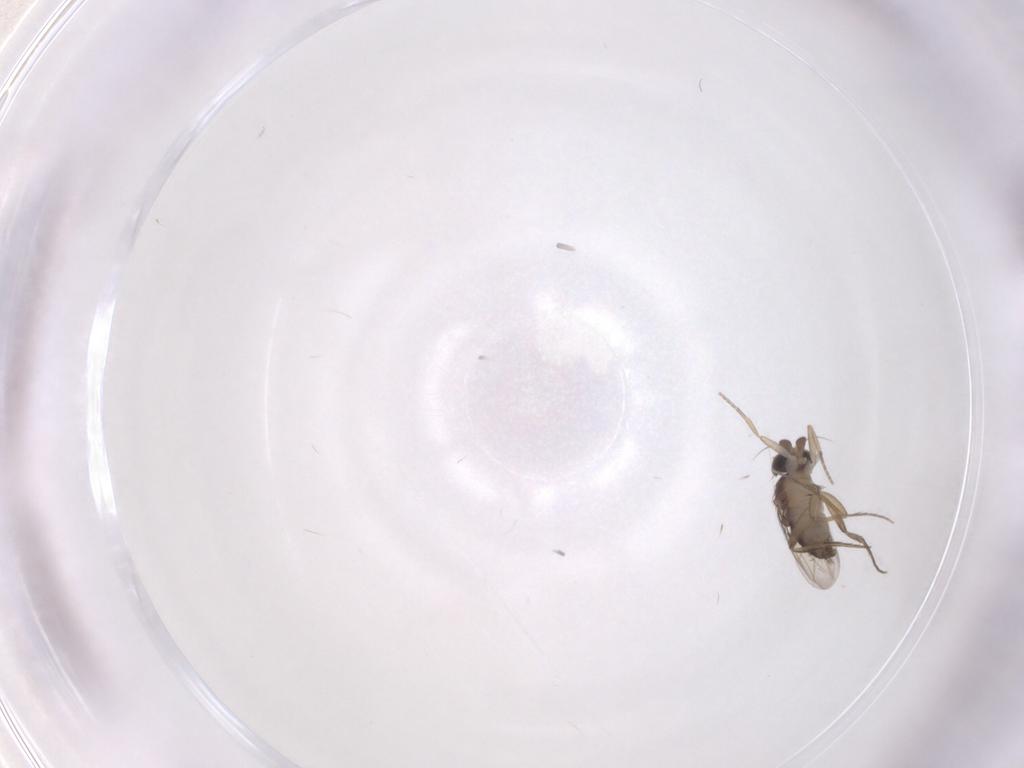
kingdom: Animalia
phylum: Arthropoda
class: Insecta
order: Diptera
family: Phoridae
